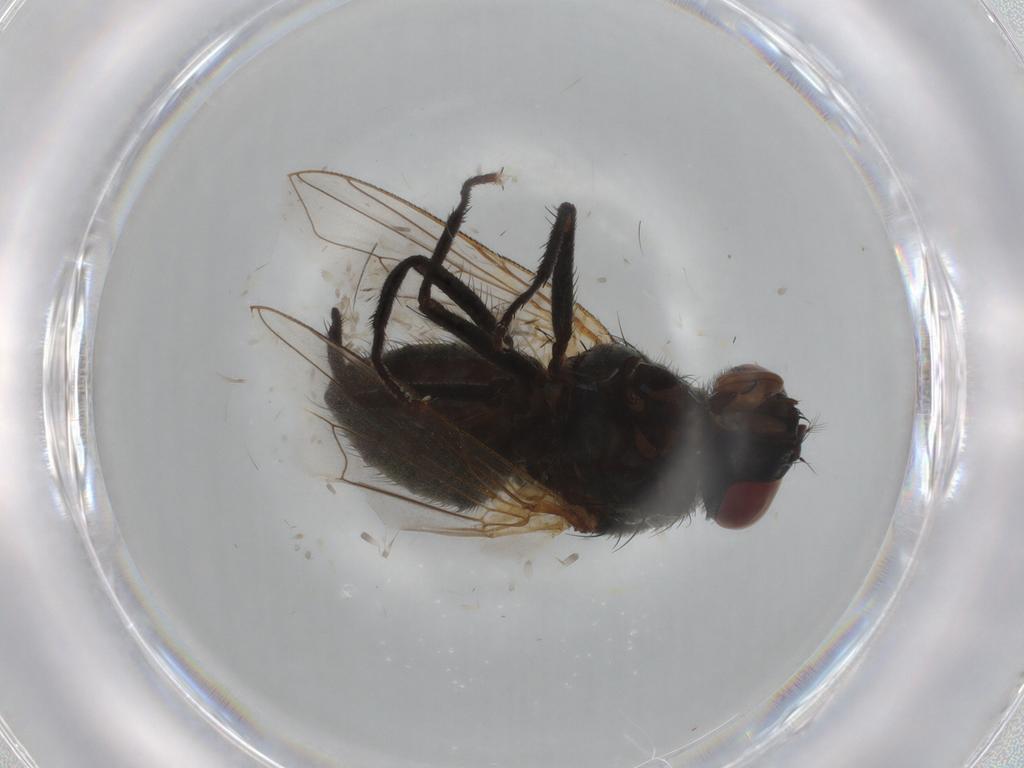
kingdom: Animalia
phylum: Arthropoda
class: Insecta
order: Diptera
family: Muscidae
